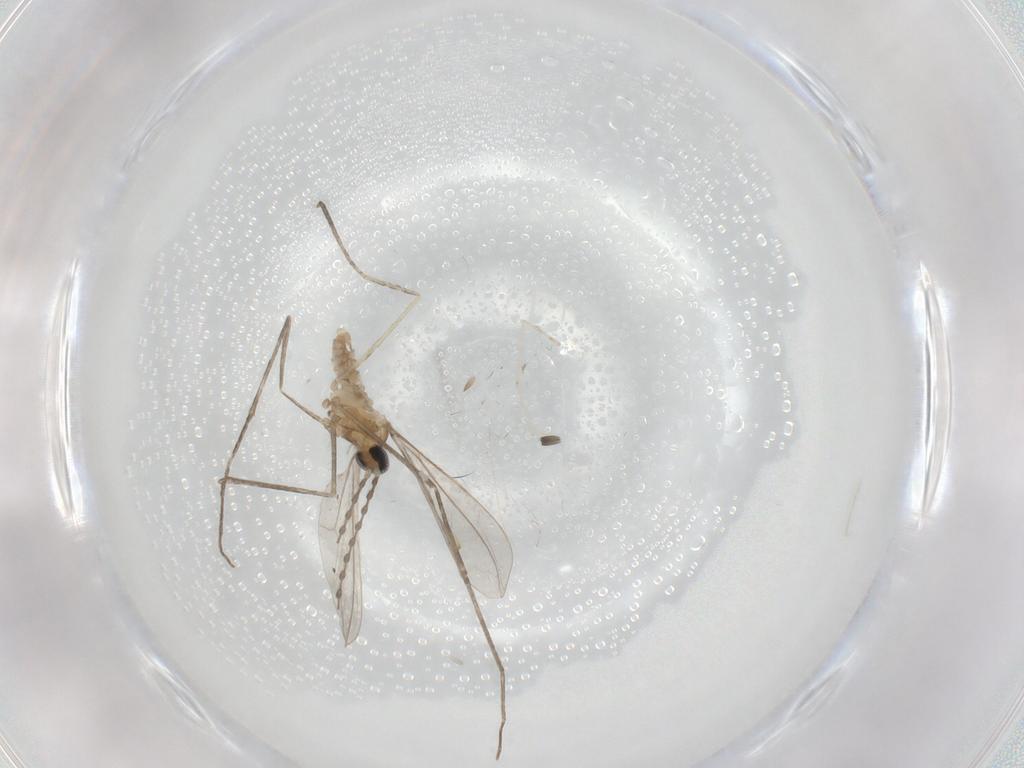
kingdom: Animalia
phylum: Arthropoda
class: Insecta
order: Diptera
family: Cecidomyiidae
